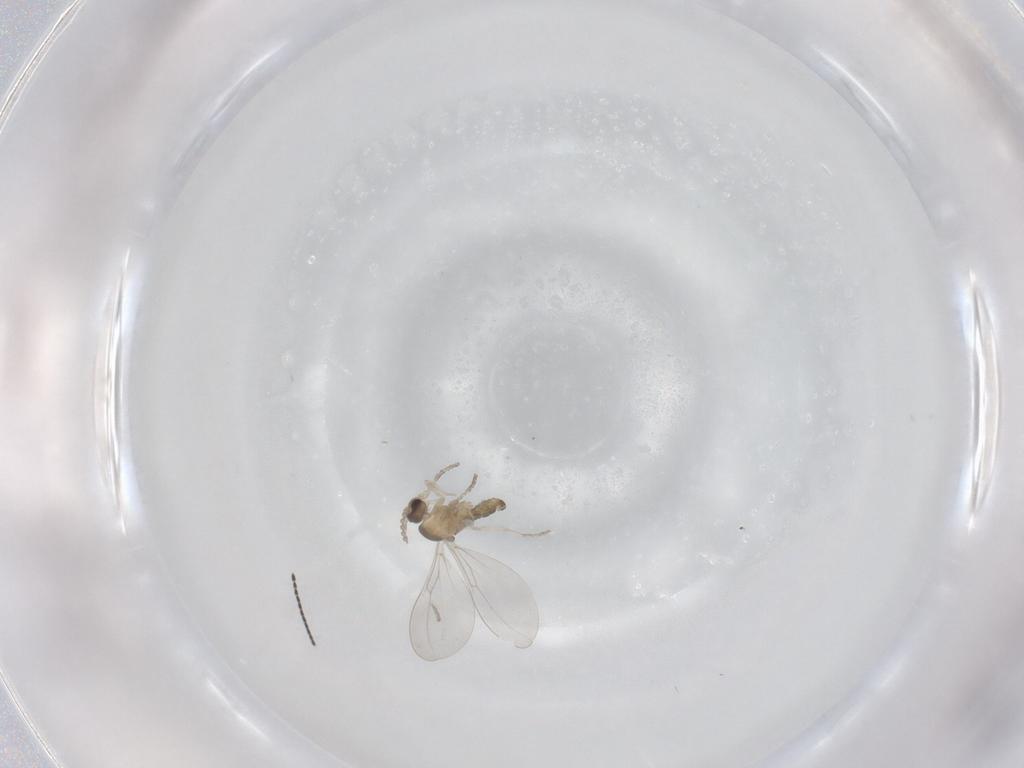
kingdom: Animalia
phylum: Arthropoda
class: Insecta
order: Diptera
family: Cecidomyiidae
